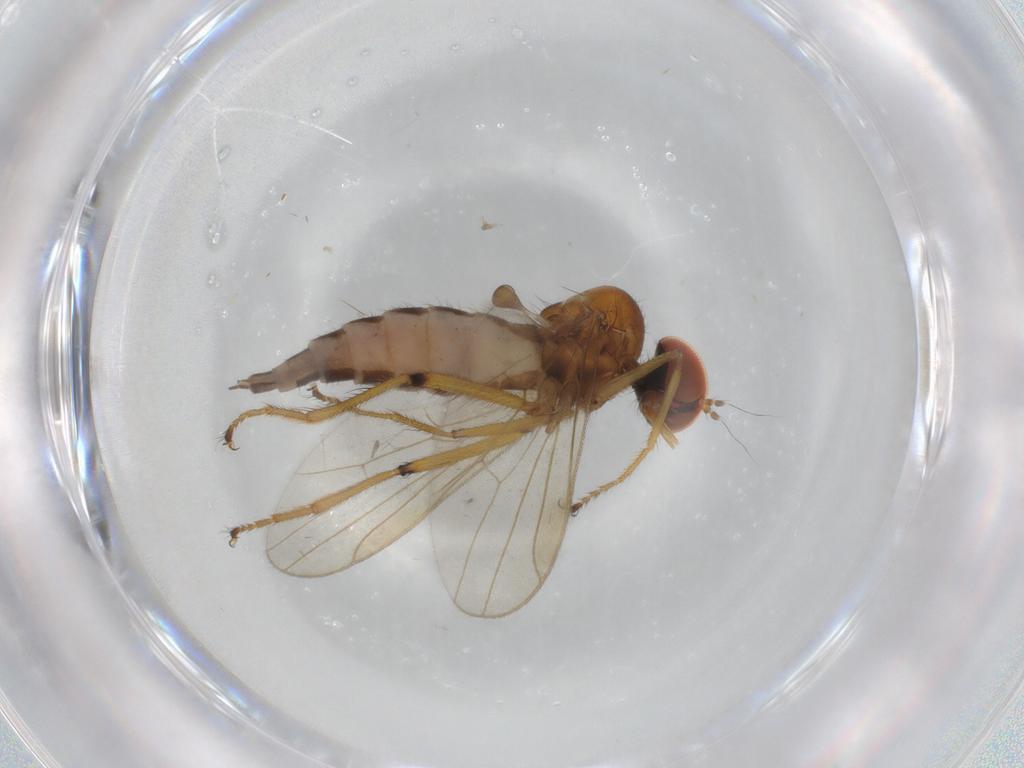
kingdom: Animalia
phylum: Arthropoda
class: Insecta
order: Diptera
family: Hybotidae
